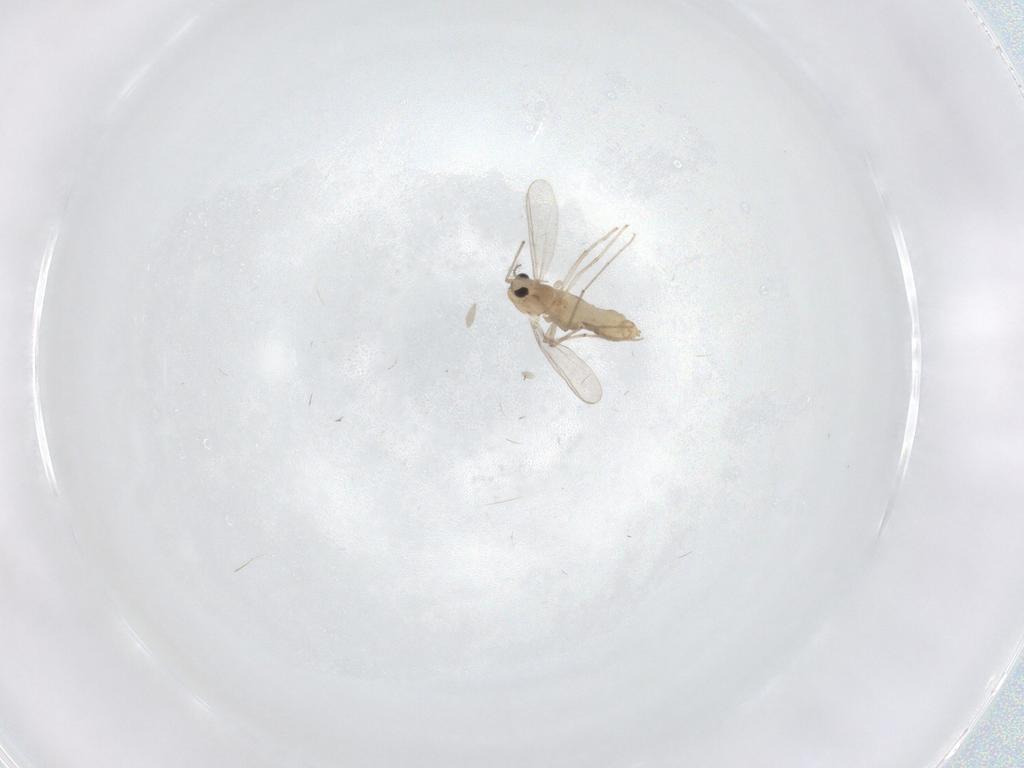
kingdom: Animalia
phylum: Arthropoda
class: Insecta
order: Diptera
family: Chironomidae
